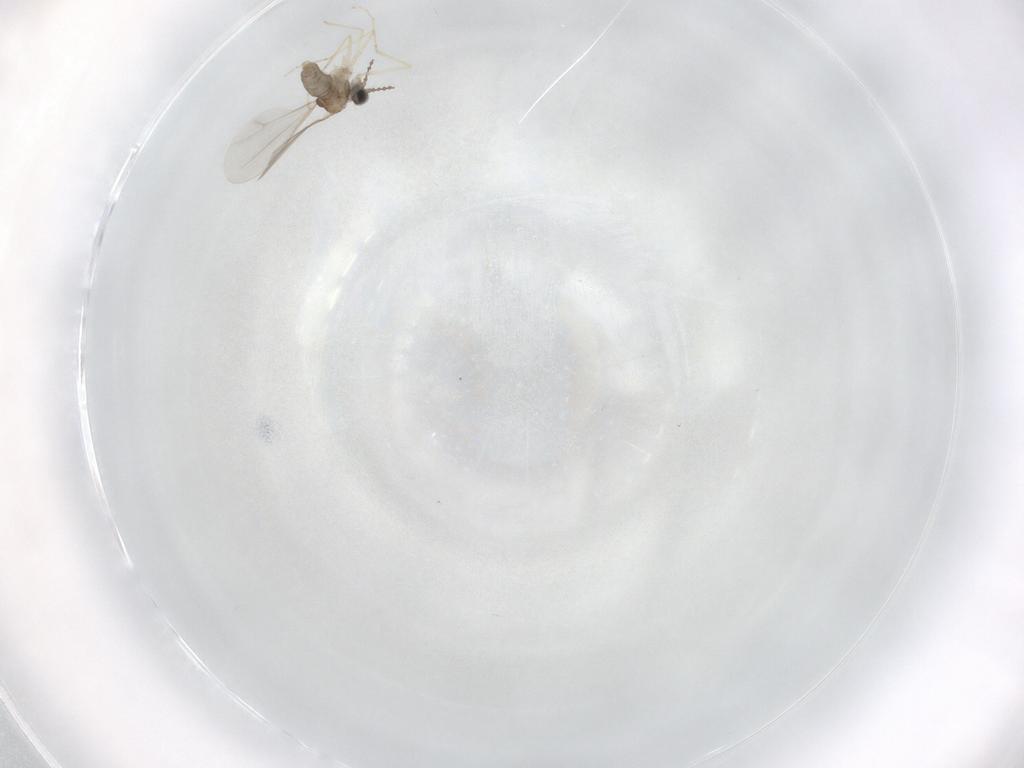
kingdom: Animalia
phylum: Arthropoda
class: Insecta
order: Diptera
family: Cecidomyiidae
